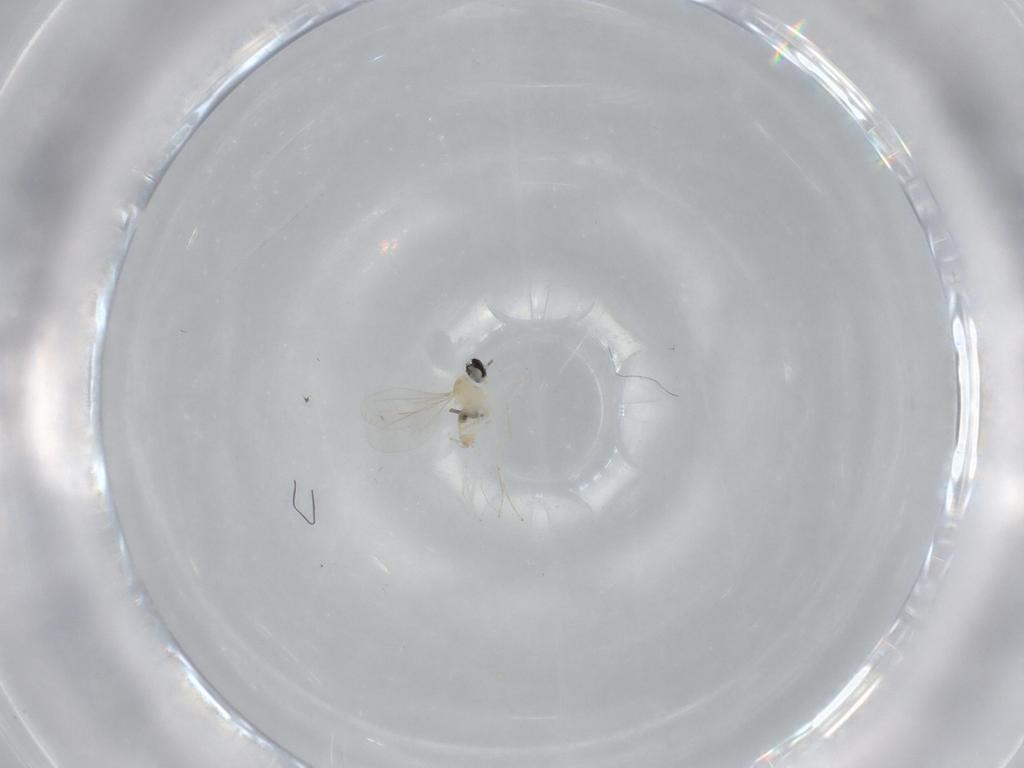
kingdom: Animalia
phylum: Arthropoda
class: Insecta
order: Diptera
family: Cecidomyiidae
